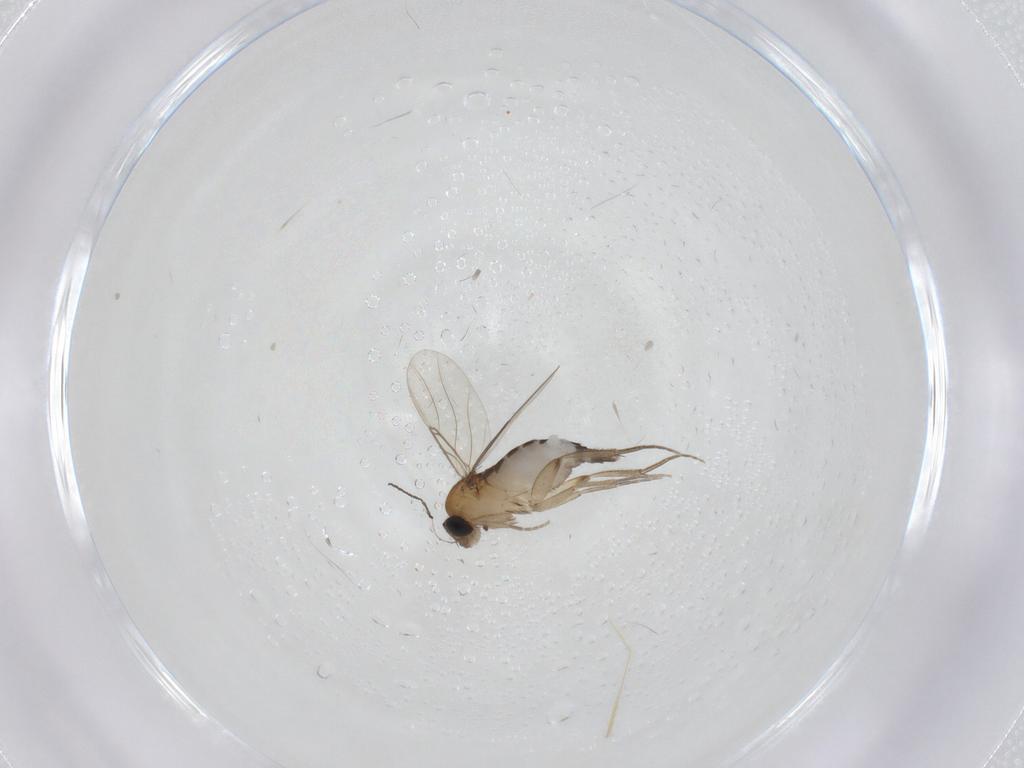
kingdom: Animalia
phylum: Arthropoda
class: Insecta
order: Diptera
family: Phoridae
